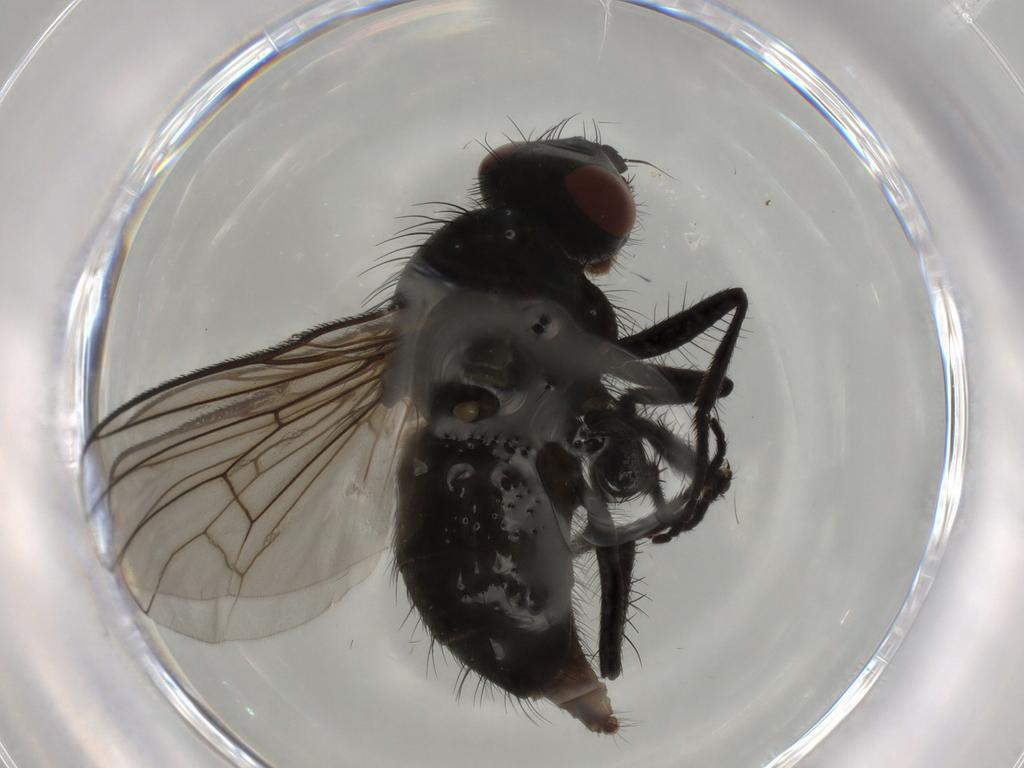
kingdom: Animalia
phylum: Arthropoda
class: Insecta
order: Diptera
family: Muscidae
